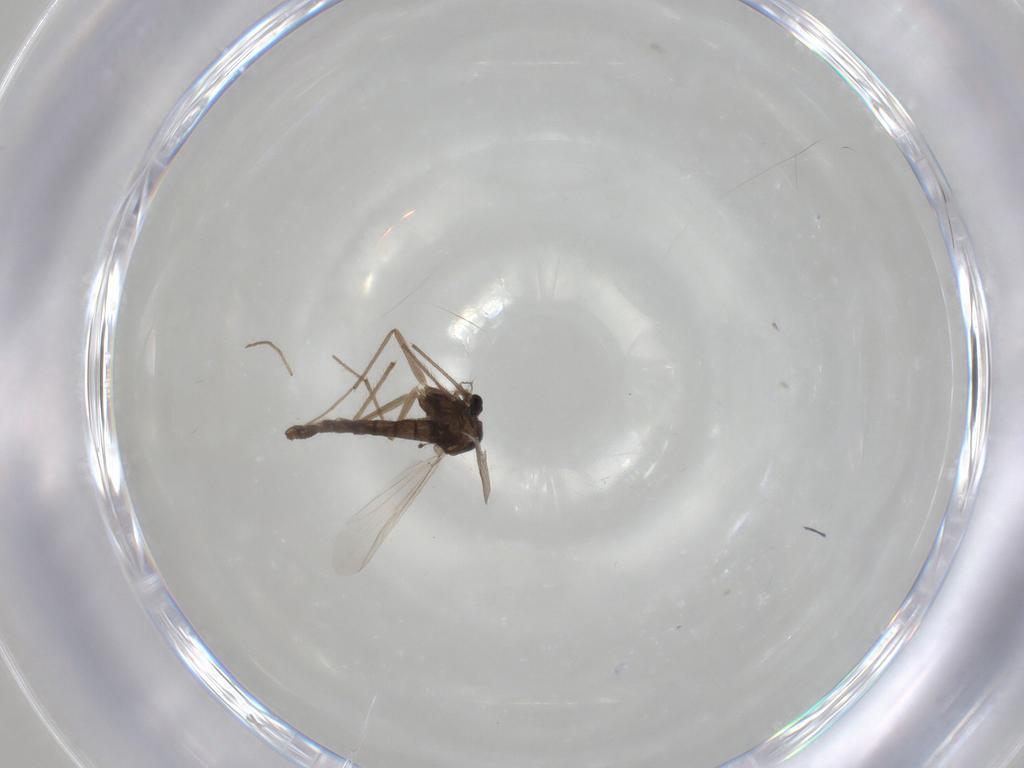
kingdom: Animalia
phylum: Arthropoda
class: Insecta
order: Diptera
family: Chironomidae
